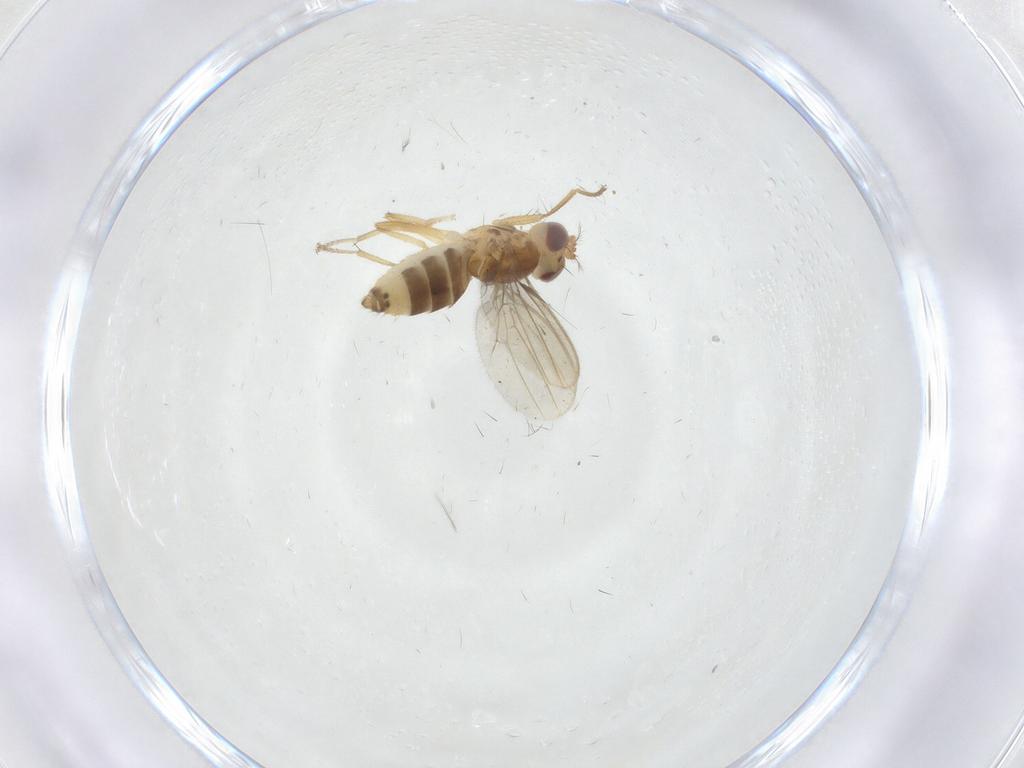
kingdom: Animalia
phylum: Arthropoda
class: Insecta
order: Diptera
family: Periscelididae
